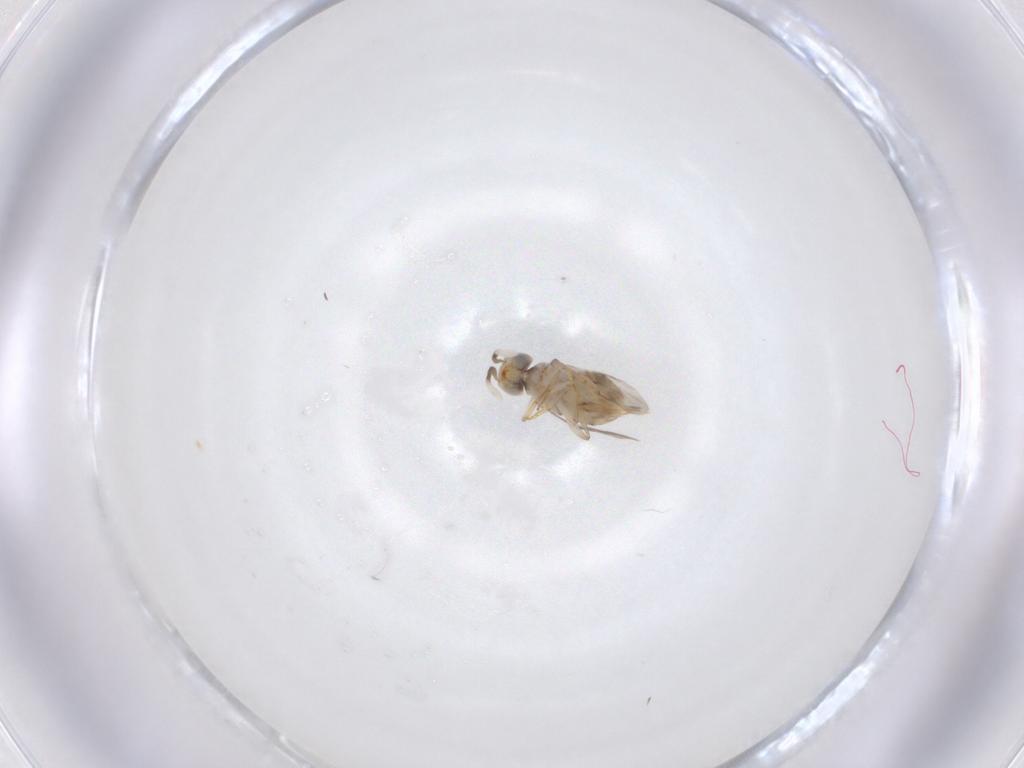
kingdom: Animalia
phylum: Arthropoda
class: Insecta
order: Hymenoptera
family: Encyrtidae
